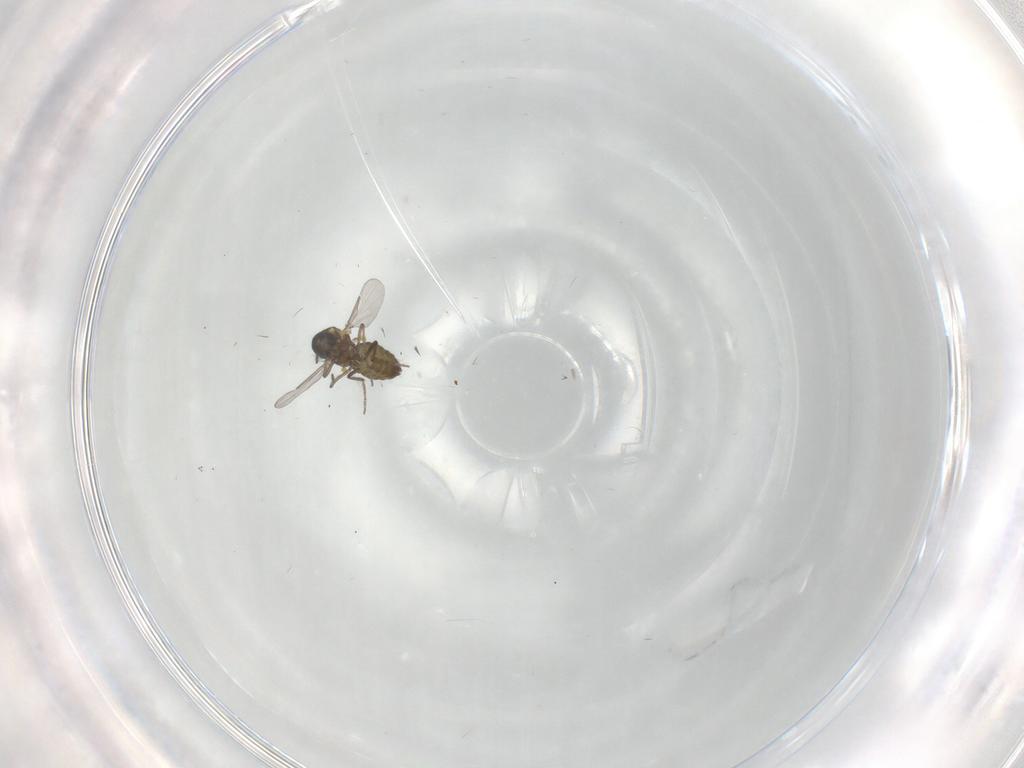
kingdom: Animalia
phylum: Arthropoda
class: Insecta
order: Diptera
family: Ceratopogonidae
